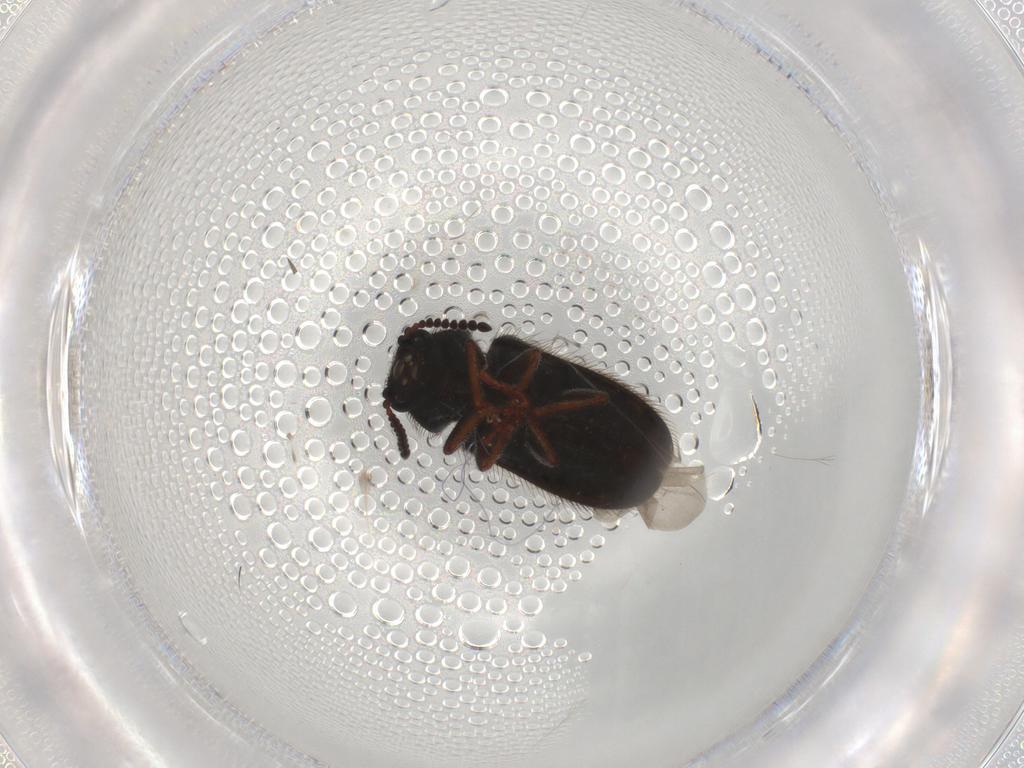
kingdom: Animalia
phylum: Arthropoda
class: Insecta
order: Coleoptera
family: Melyridae
